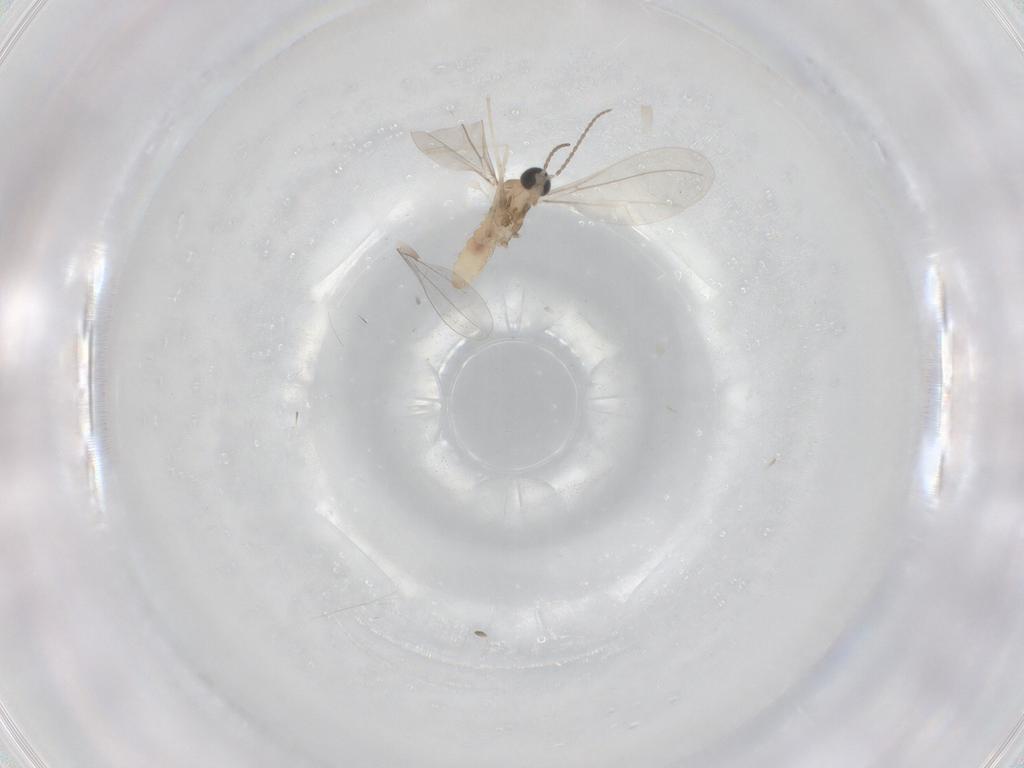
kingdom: Animalia
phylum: Arthropoda
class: Insecta
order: Diptera
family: Cecidomyiidae
